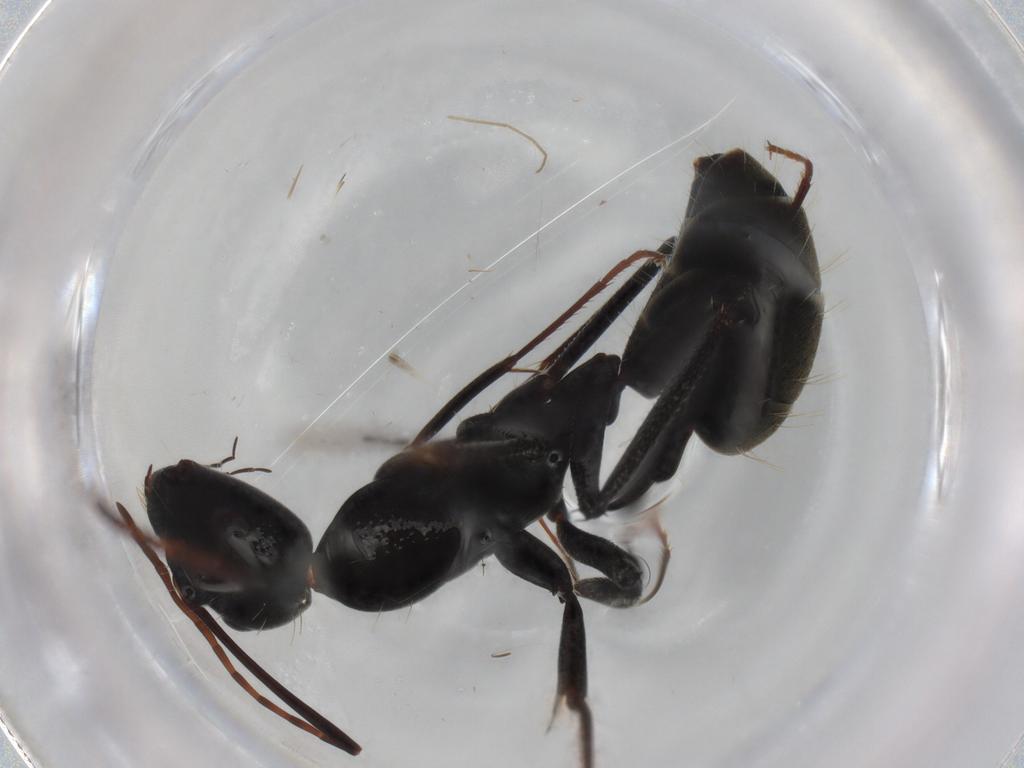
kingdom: Animalia
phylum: Arthropoda
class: Insecta
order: Hymenoptera
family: Formicidae
